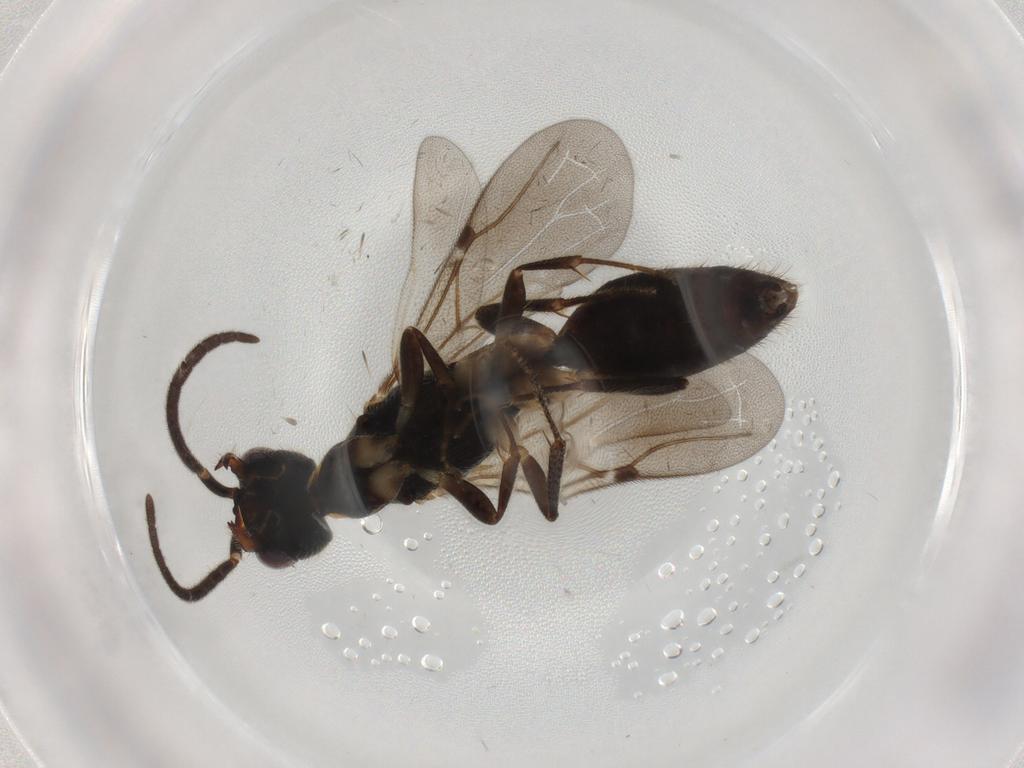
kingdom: Animalia
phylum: Arthropoda
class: Insecta
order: Hymenoptera
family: Bethylidae
